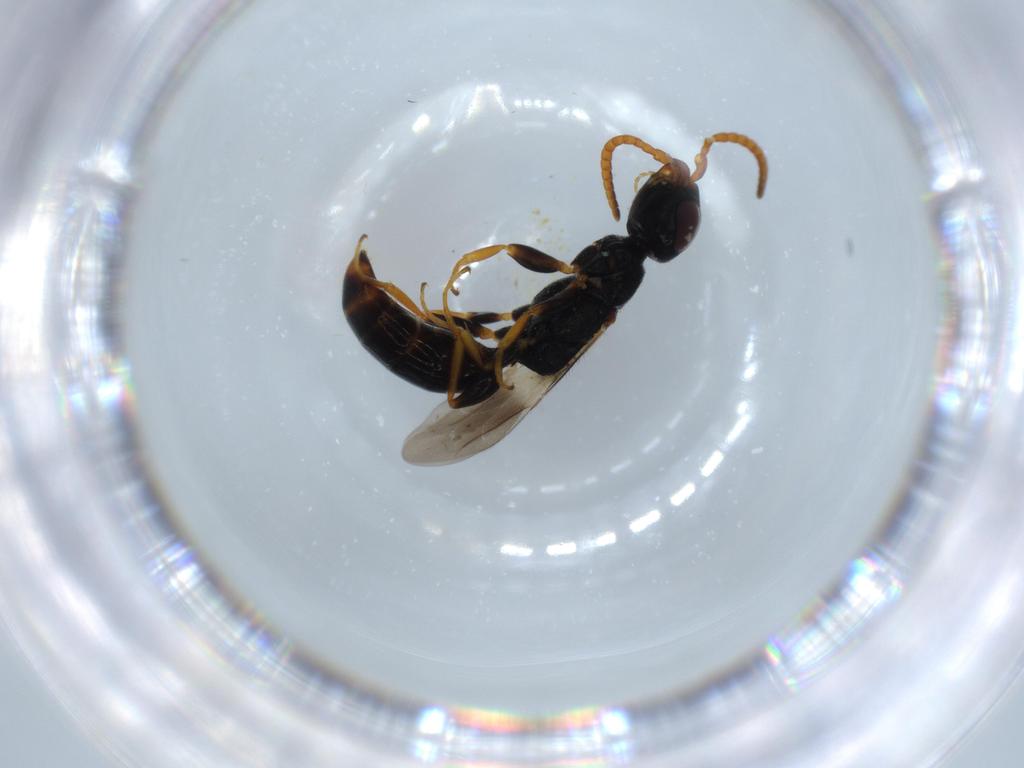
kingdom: Animalia
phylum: Arthropoda
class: Insecta
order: Hymenoptera
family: Bethylidae
